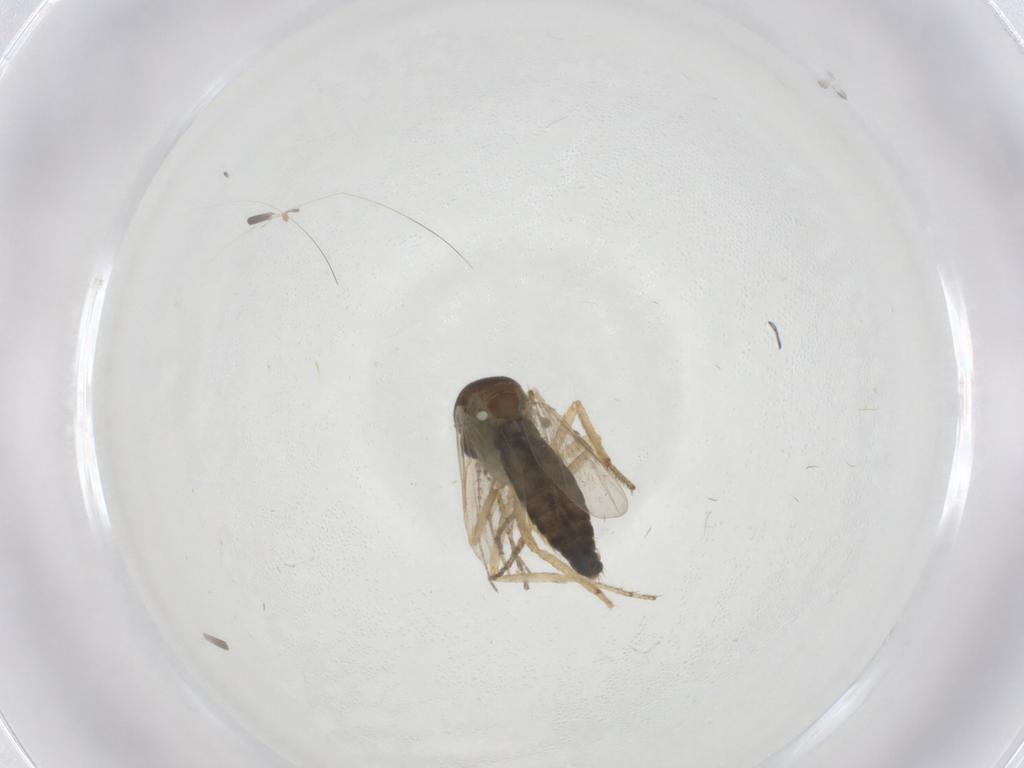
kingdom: Animalia
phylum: Arthropoda
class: Insecta
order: Diptera
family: Ceratopogonidae
